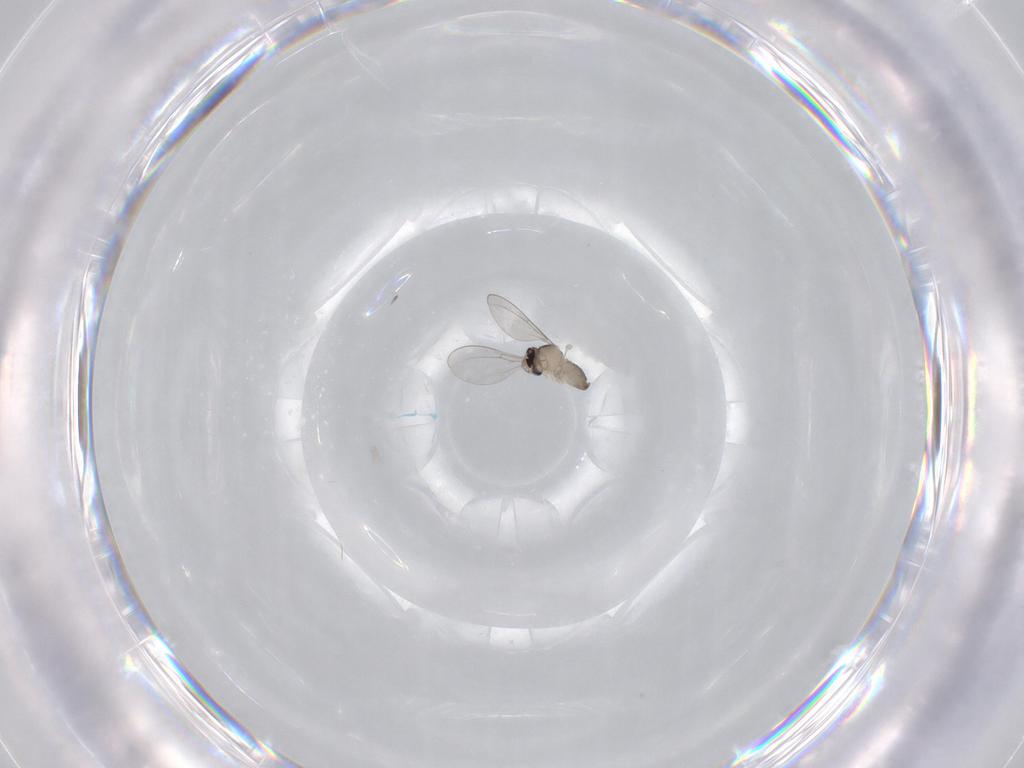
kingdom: Animalia
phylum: Arthropoda
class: Insecta
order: Diptera
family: Cecidomyiidae
